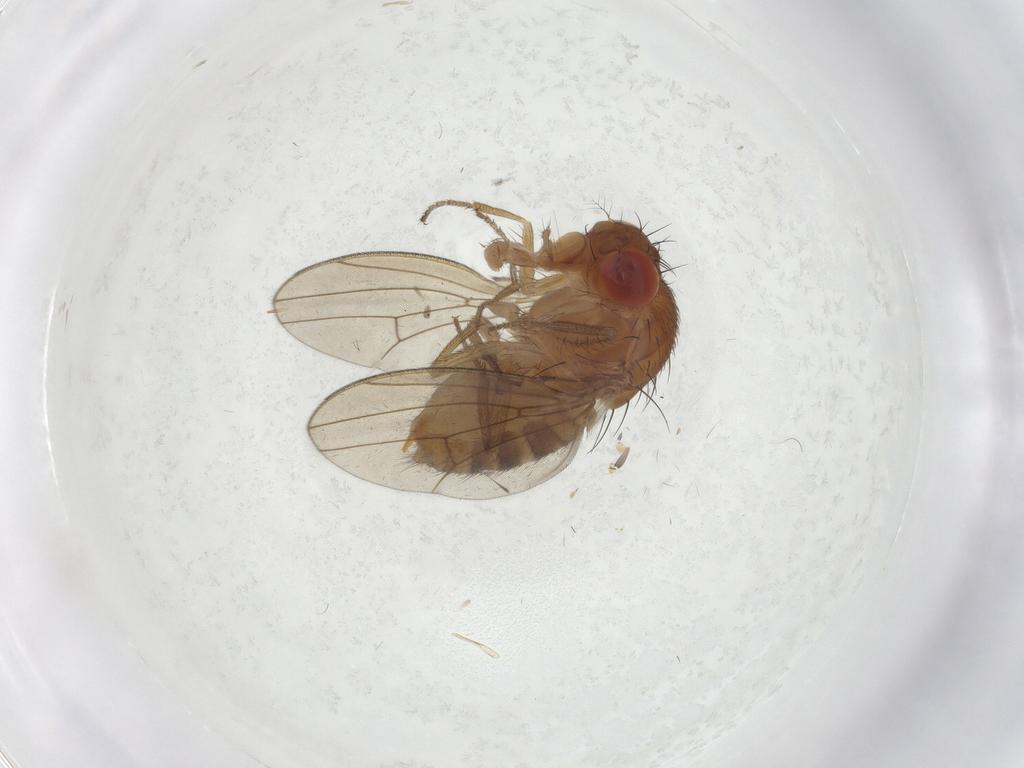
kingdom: Animalia
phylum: Arthropoda
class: Insecta
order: Diptera
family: Drosophilidae
